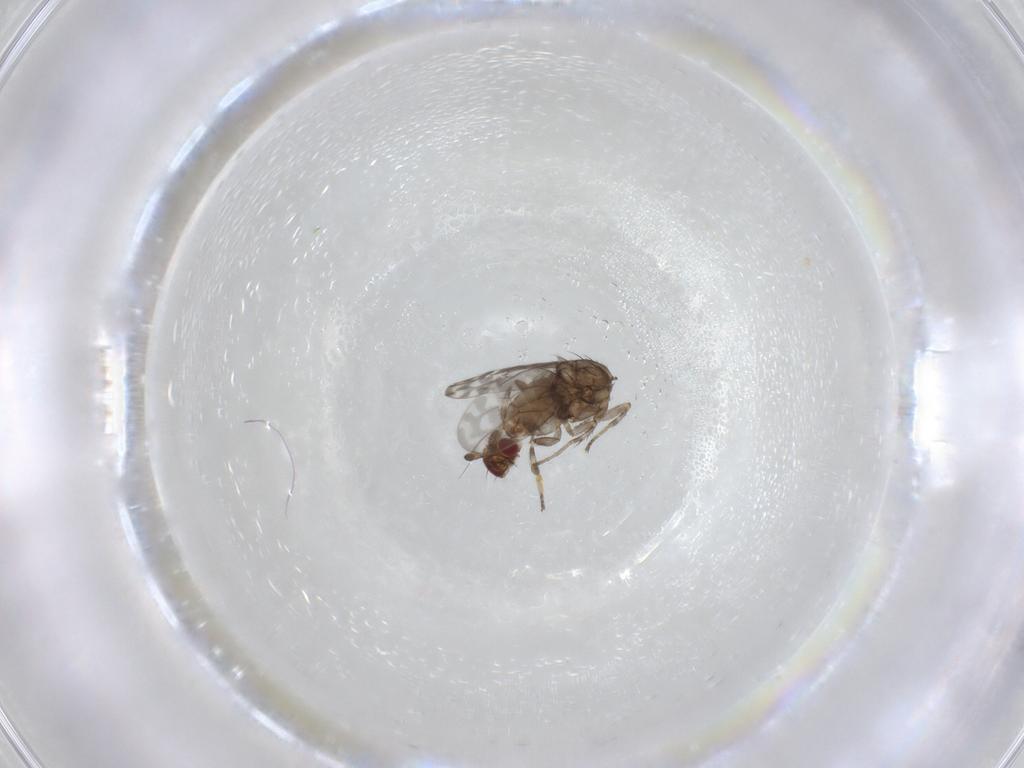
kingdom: Animalia
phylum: Arthropoda
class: Insecta
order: Diptera
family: Sphaeroceridae
